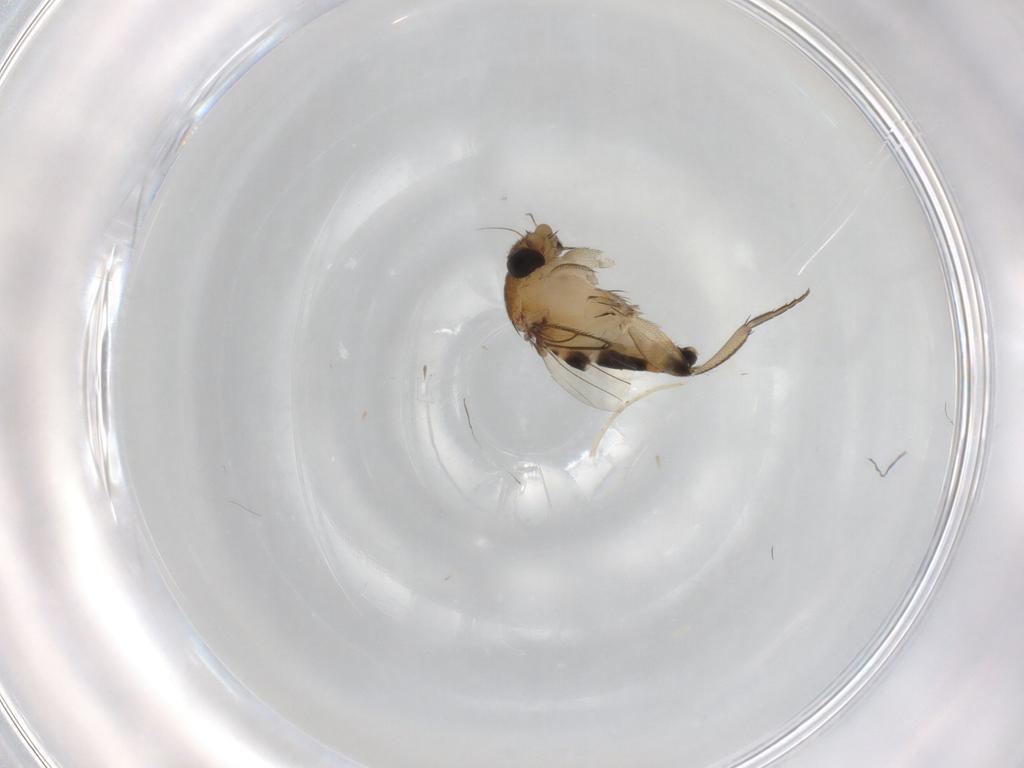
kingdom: Animalia
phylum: Arthropoda
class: Insecta
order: Diptera
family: Phoridae
